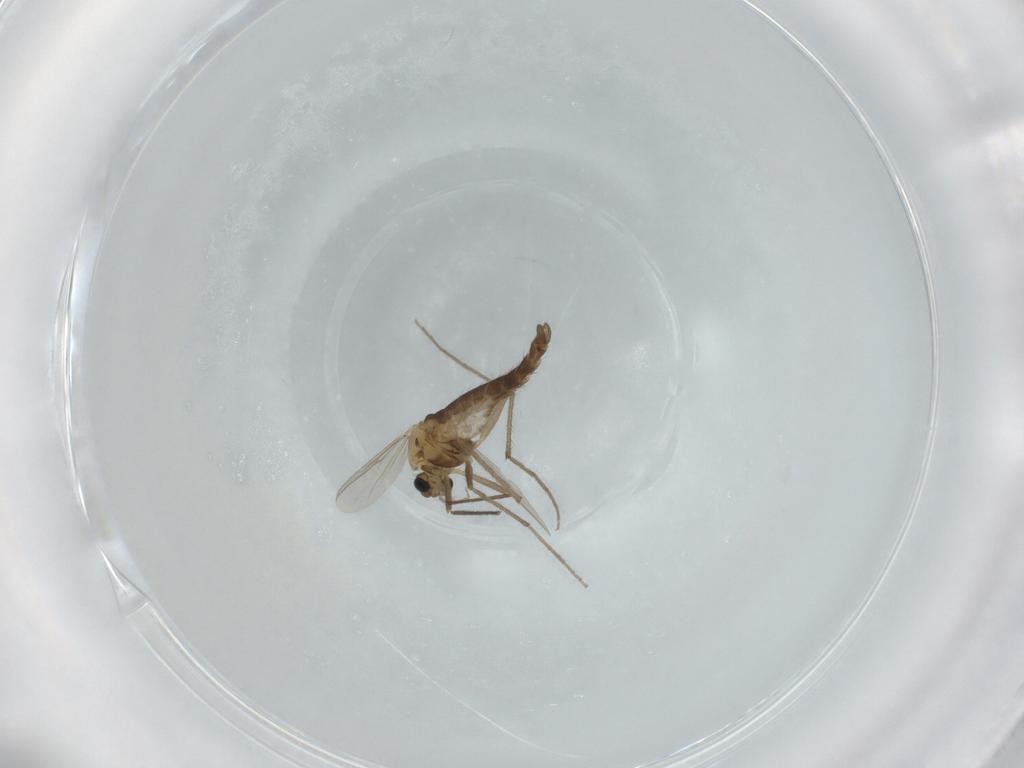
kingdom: Animalia
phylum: Arthropoda
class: Insecta
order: Diptera
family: Chironomidae
